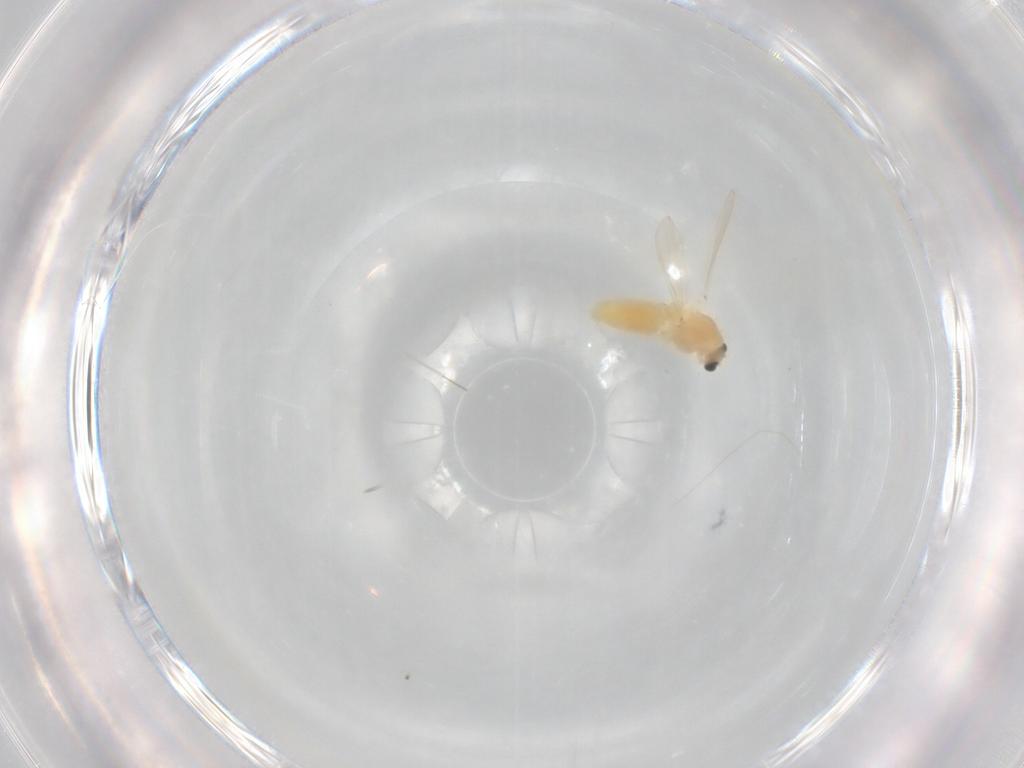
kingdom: Animalia
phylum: Arthropoda
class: Insecta
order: Diptera
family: Chironomidae
